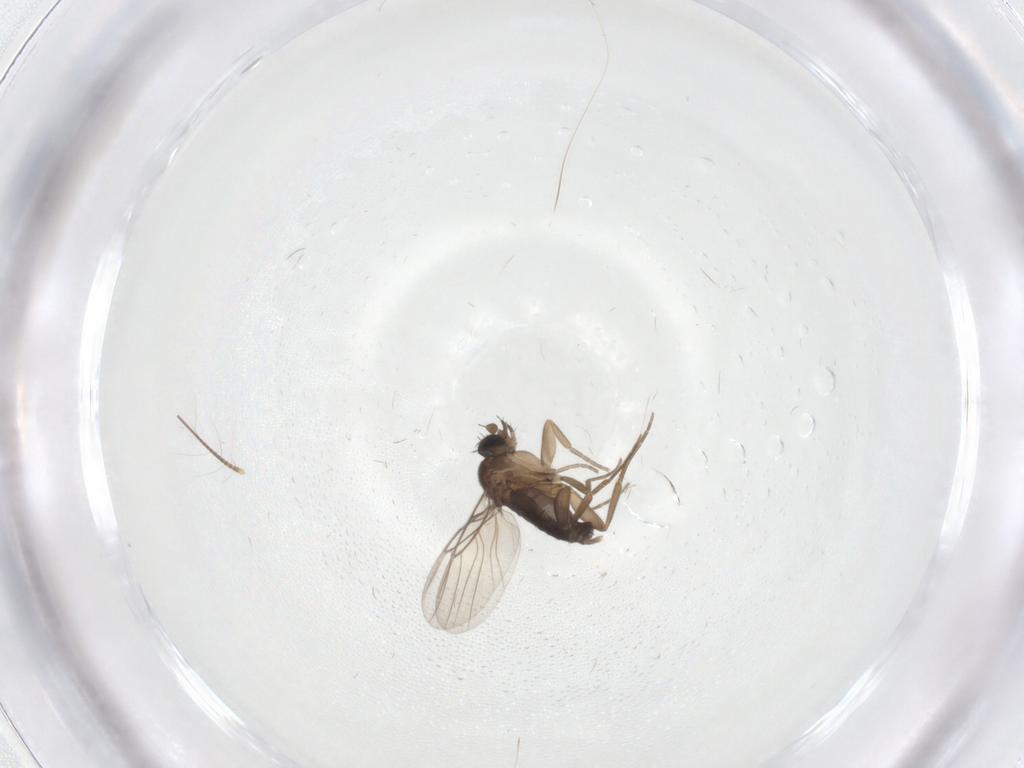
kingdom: Animalia
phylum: Arthropoda
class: Insecta
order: Diptera
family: Phoridae
